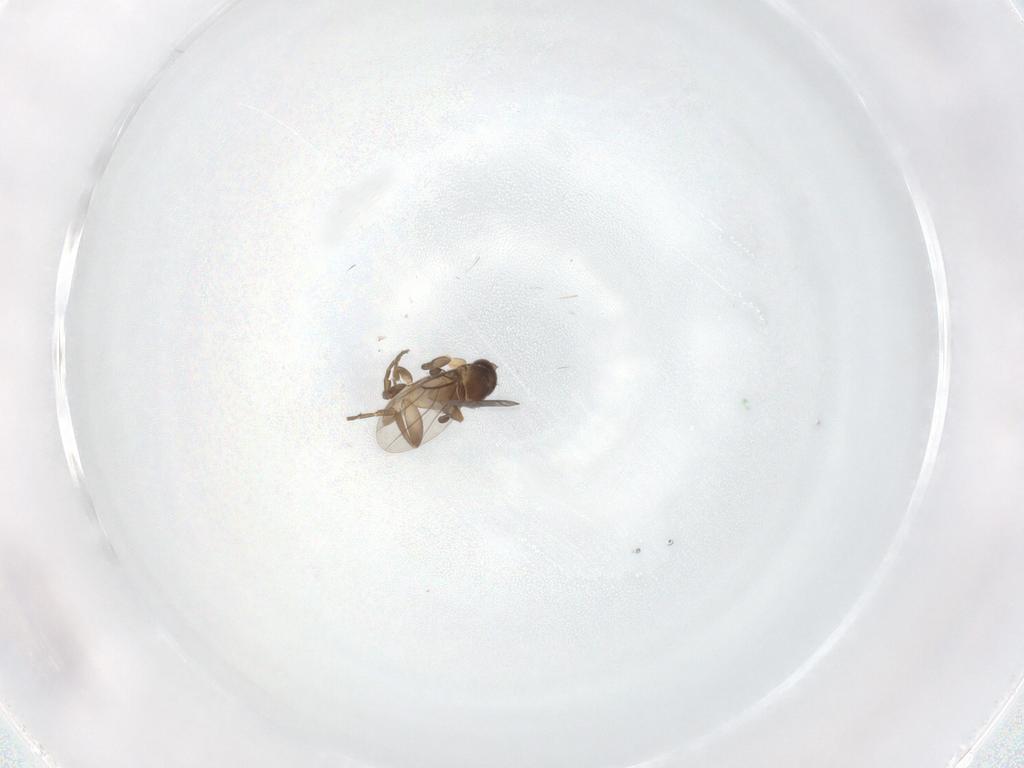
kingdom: Animalia
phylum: Arthropoda
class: Insecta
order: Diptera
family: Phoridae
